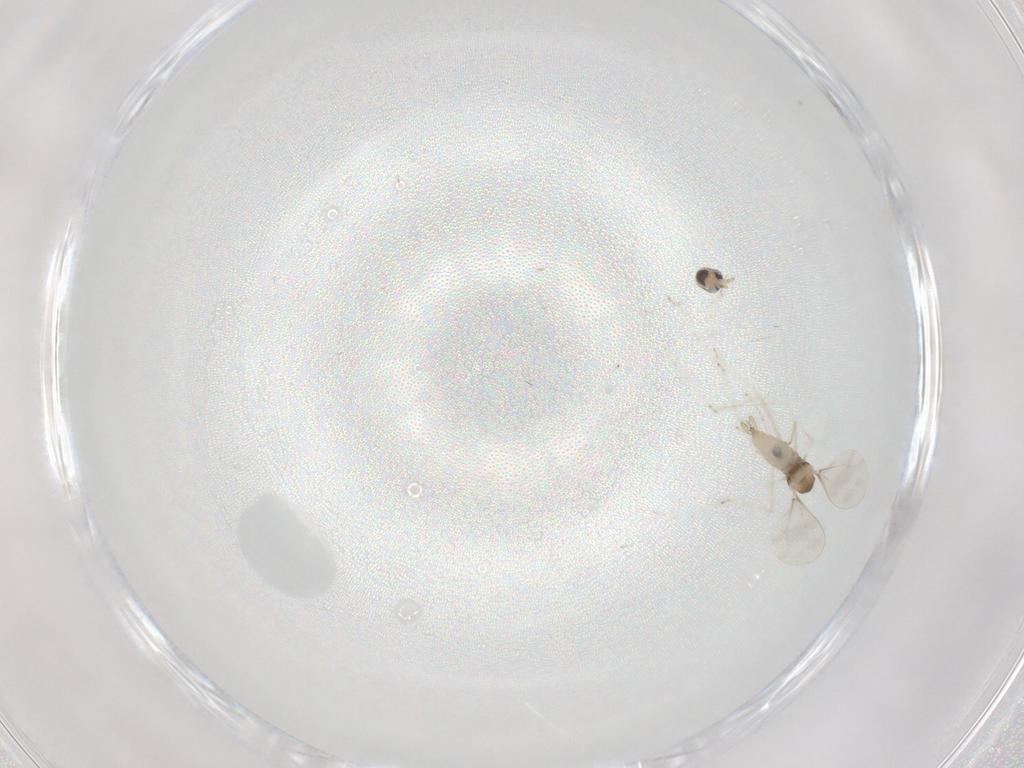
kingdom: Animalia
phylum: Arthropoda
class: Insecta
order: Diptera
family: Cecidomyiidae
